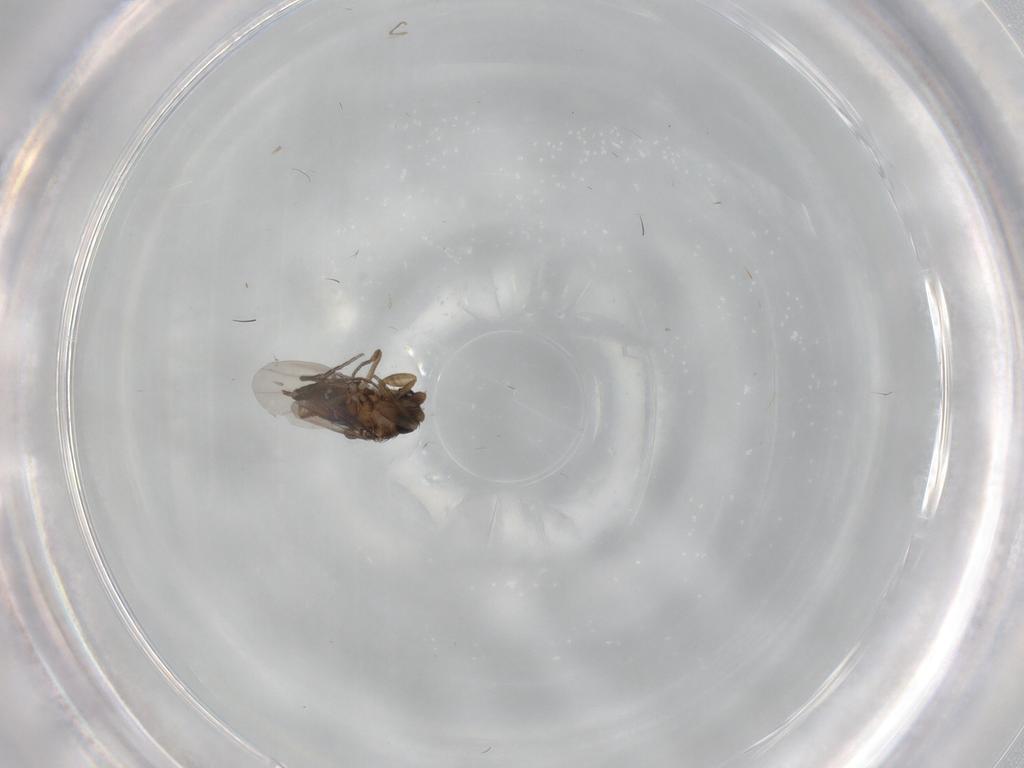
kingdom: Animalia
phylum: Arthropoda
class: Insecta
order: Diptera
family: Phoridae
